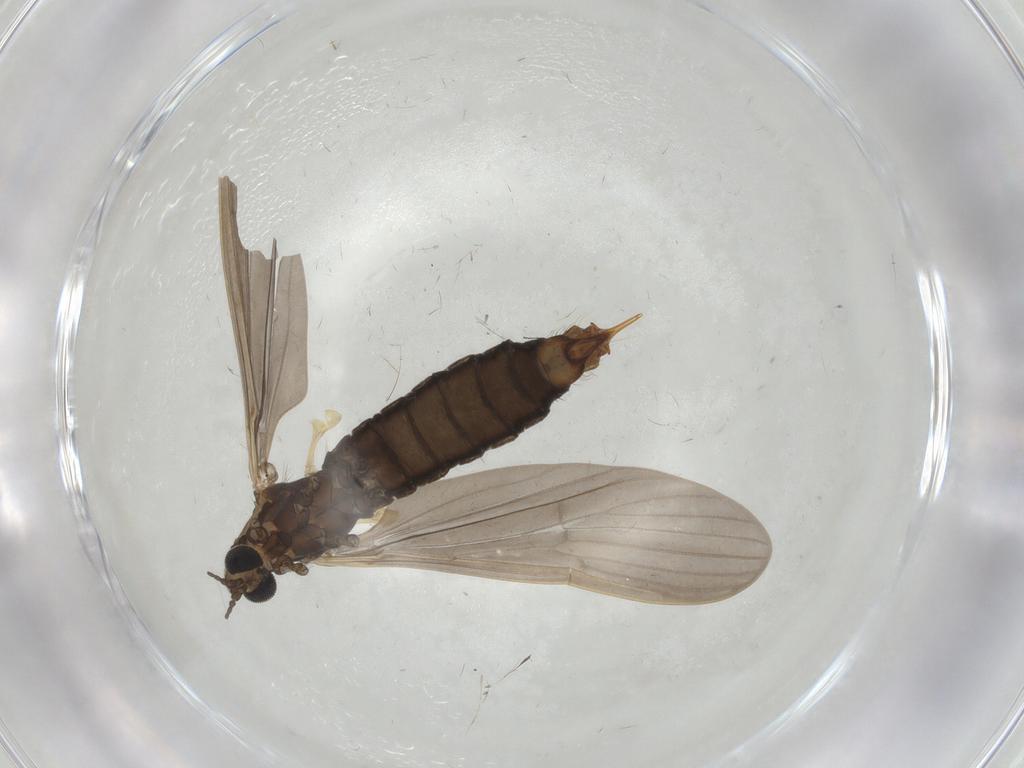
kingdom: Animalia
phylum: Arthropoda
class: Insecta
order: Diptera
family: Limoniidae
